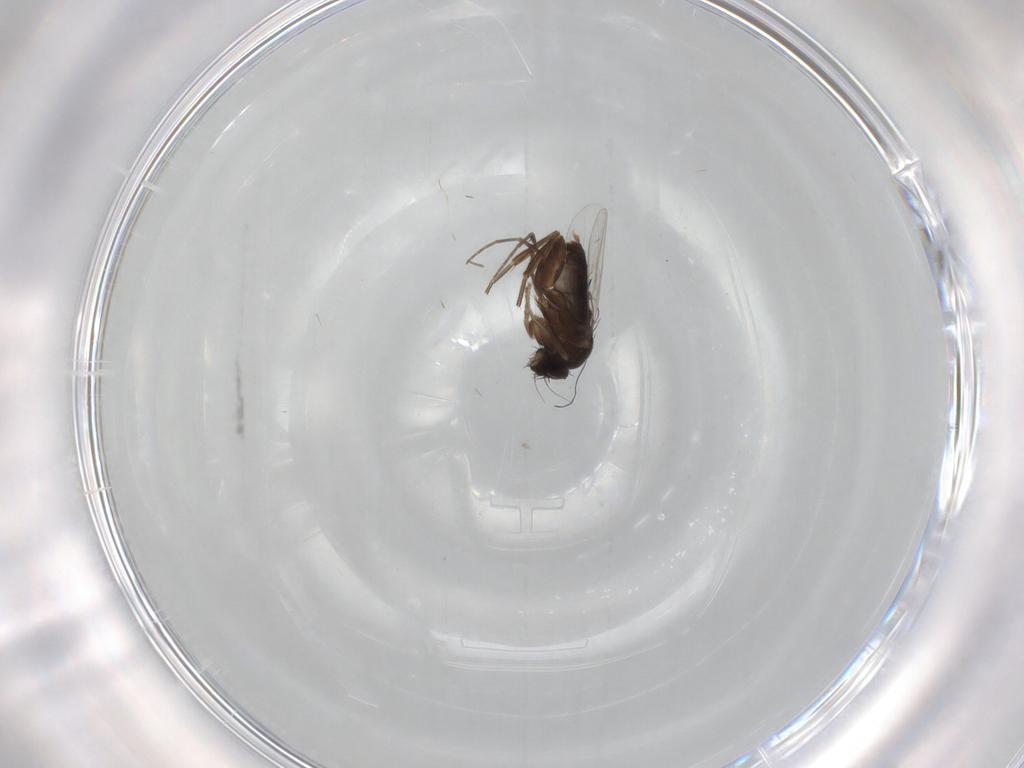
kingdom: Animalia
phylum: Arthropoda
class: Insecta
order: Diptera
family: Phoridae
